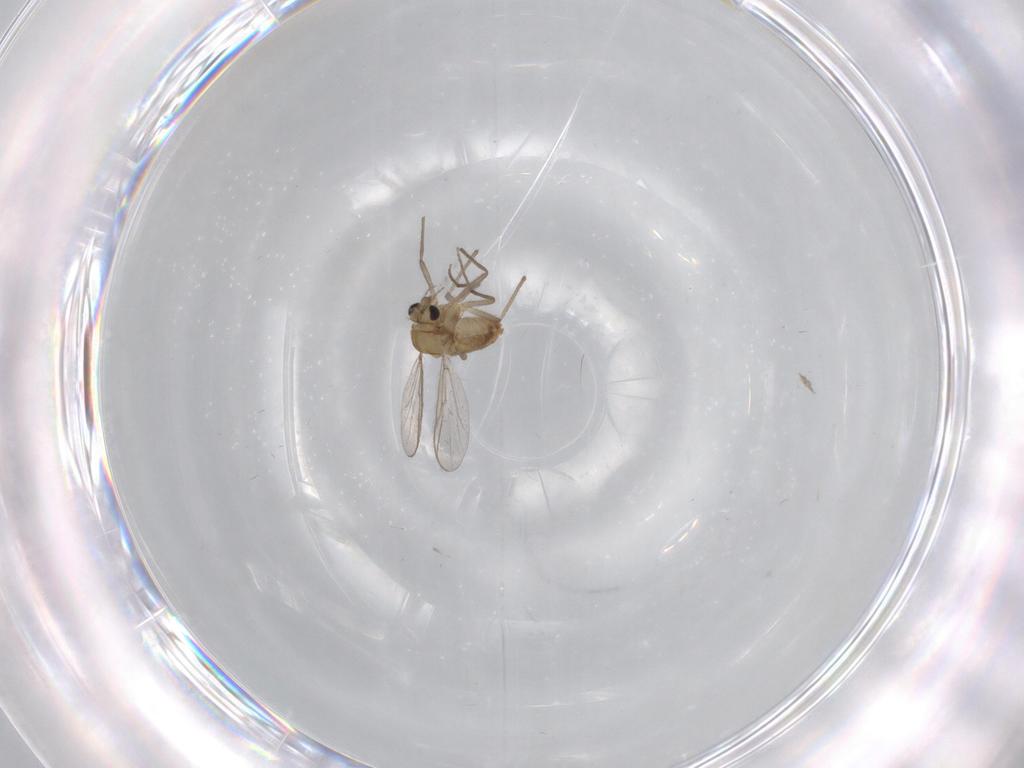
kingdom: Animalia
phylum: Arthropoda
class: Insecta
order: Diptera
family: Chironomidae
